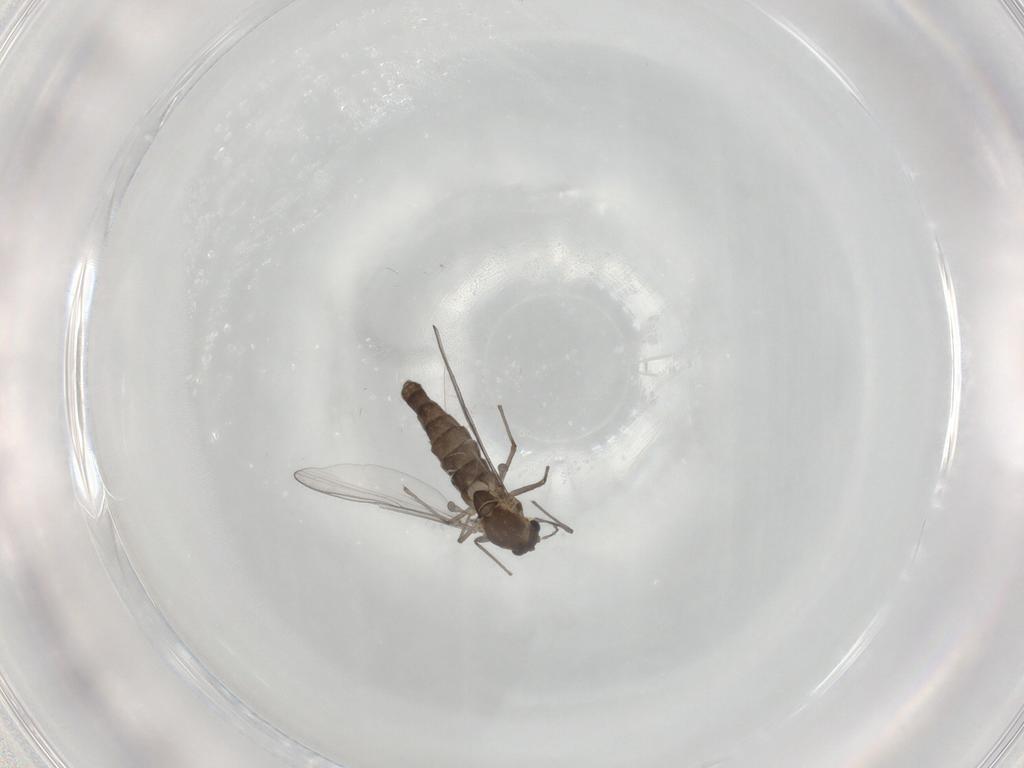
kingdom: Animalia
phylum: Arthropoda
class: Insecta
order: Diptera
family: Chironomidae
